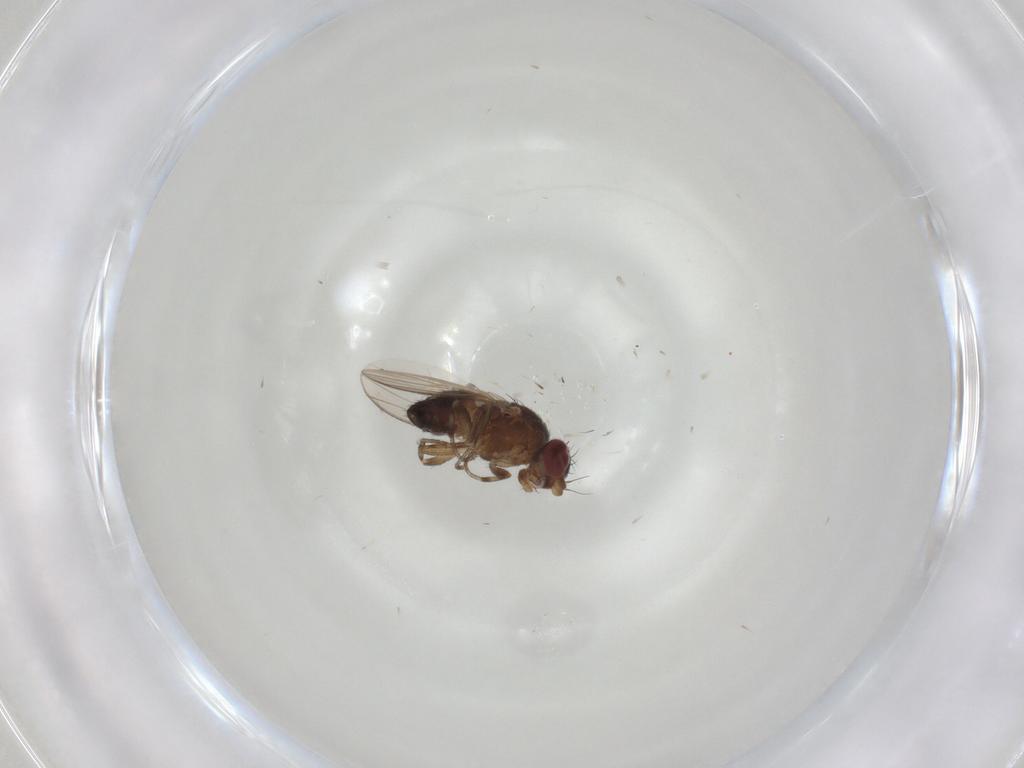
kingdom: Animalia
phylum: Arthropoda
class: Insecta
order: Diptera
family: Heleomyzidae
